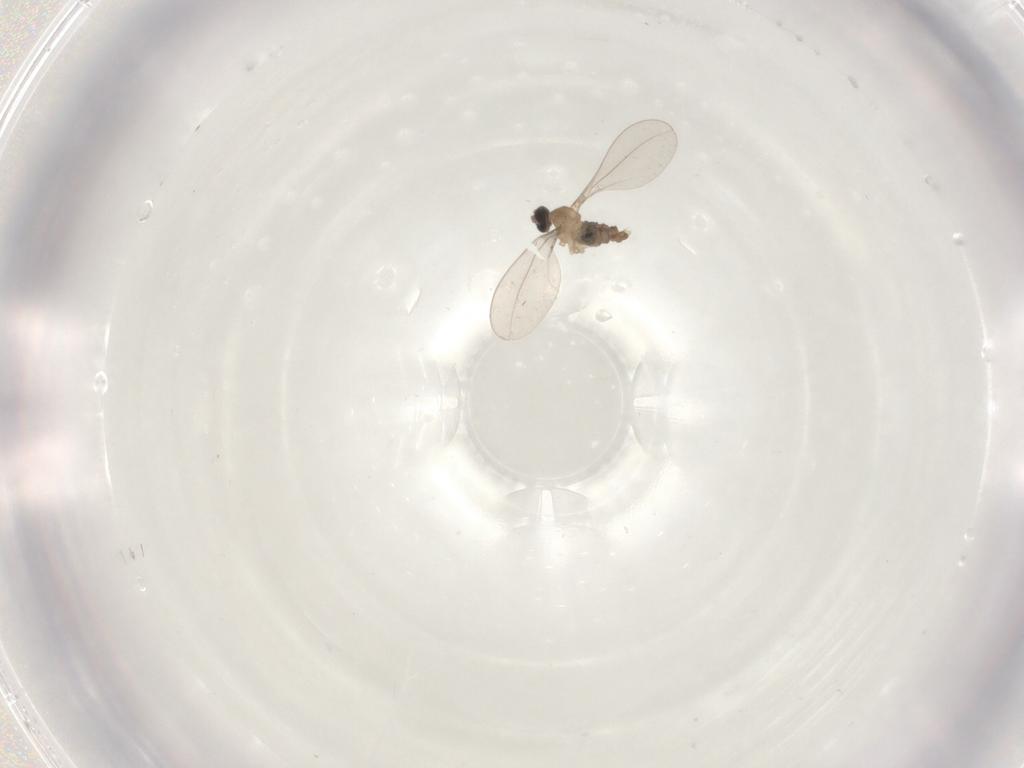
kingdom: Animalia
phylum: Arthropoda
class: Insecta
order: Diptera
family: Cecidomyiidae
